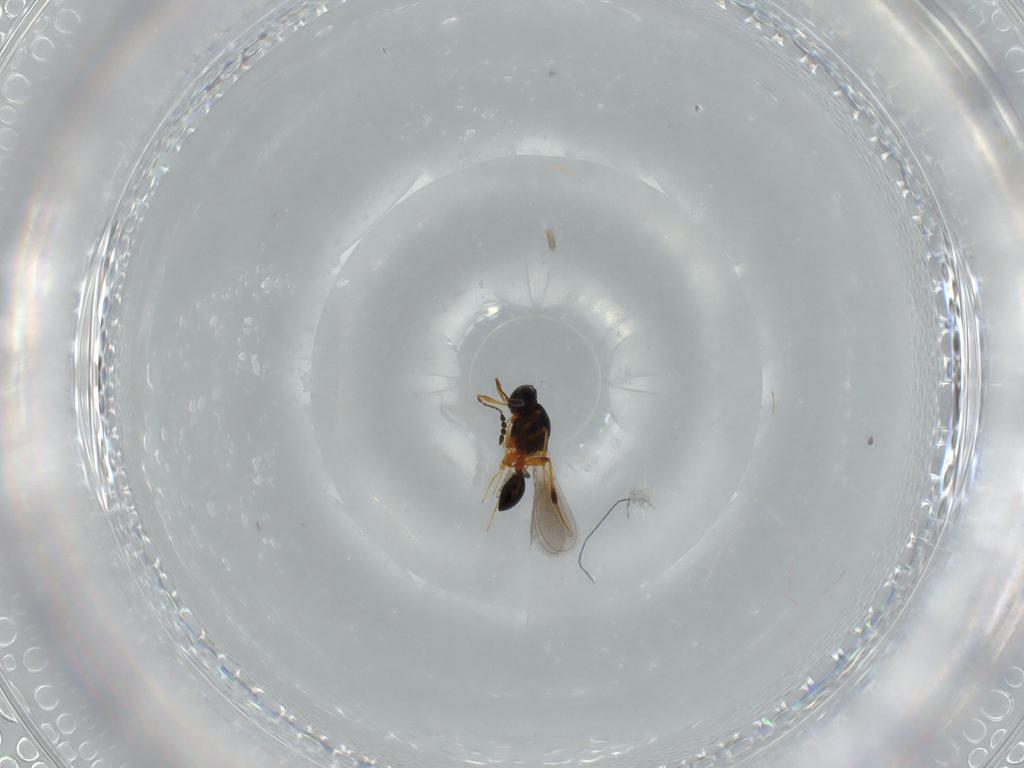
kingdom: Animalia
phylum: Arthropoda
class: Insecta
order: Hymenoptera
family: Platygastridae
